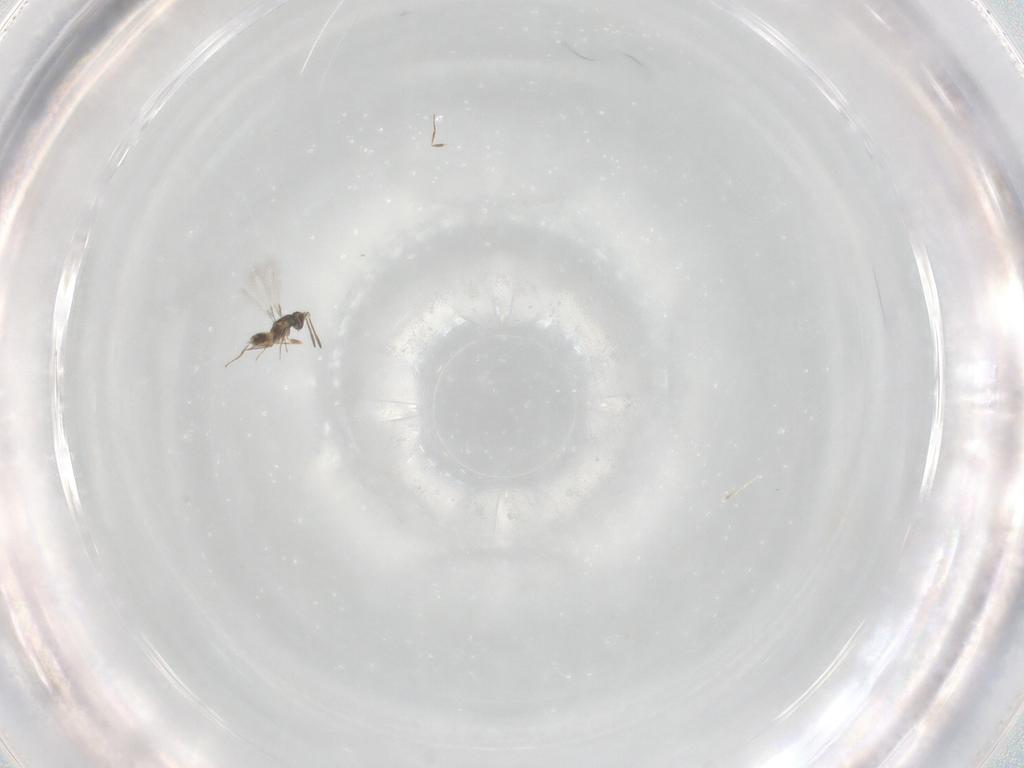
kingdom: Animalia
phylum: Arthropoda
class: Insecta
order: Hymenoptera
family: Mymaridae
